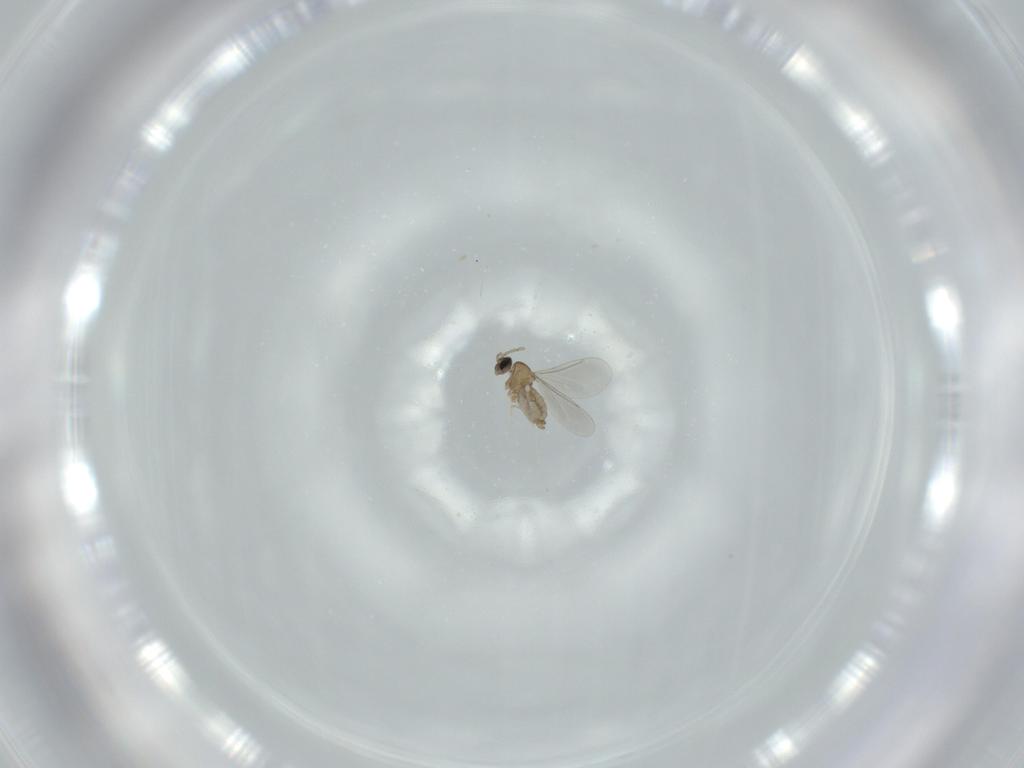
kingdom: Animalia
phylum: Arthropoda
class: Insecta
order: Diptera
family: Cecidomyiidae
